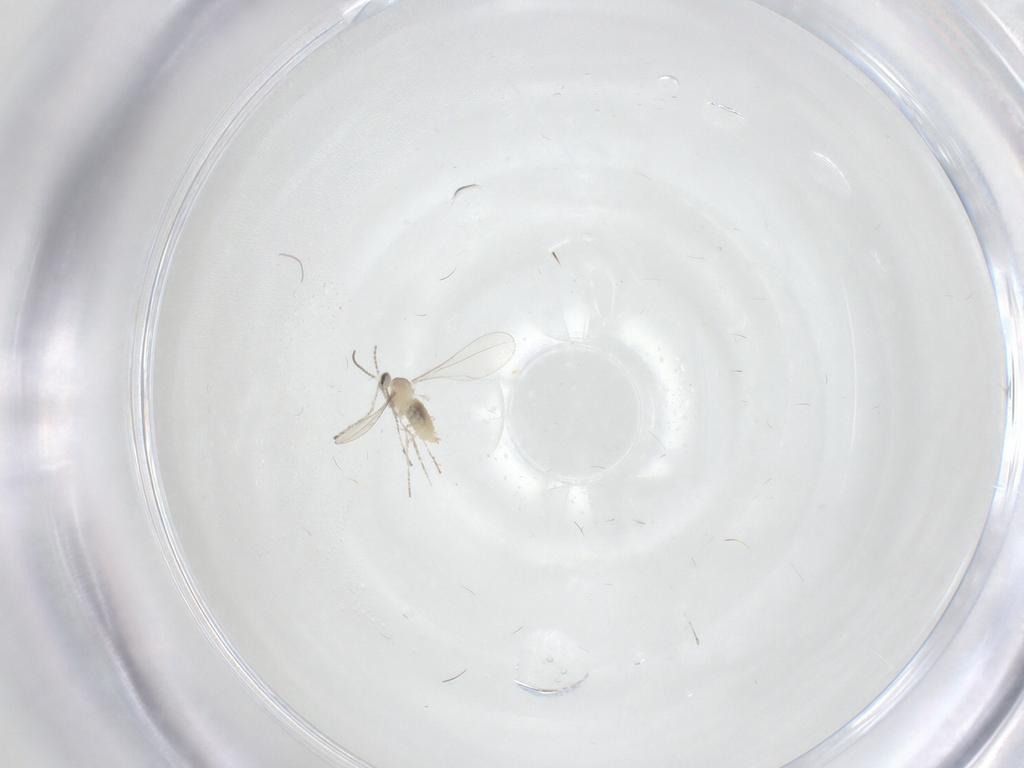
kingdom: Animalia
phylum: Arthropoda
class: Insecta
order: Diptera
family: Cecidomyiidae
